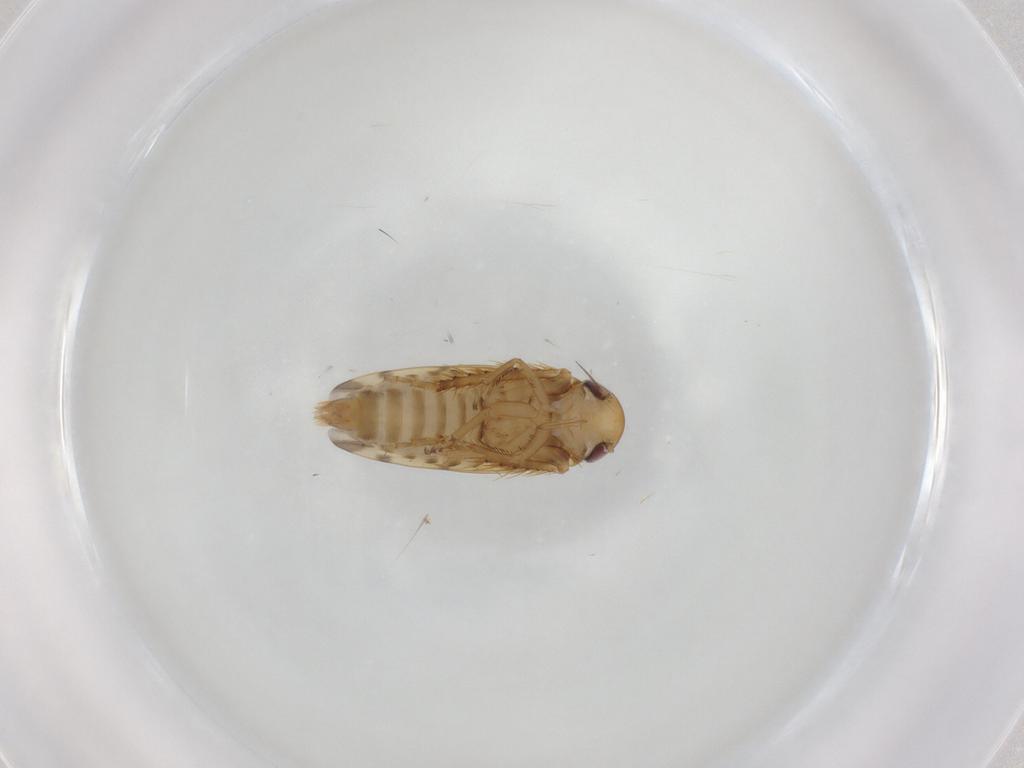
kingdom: Animalia
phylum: Arthropoda
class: Insecta
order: Hemiptera
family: Cicadellidae
